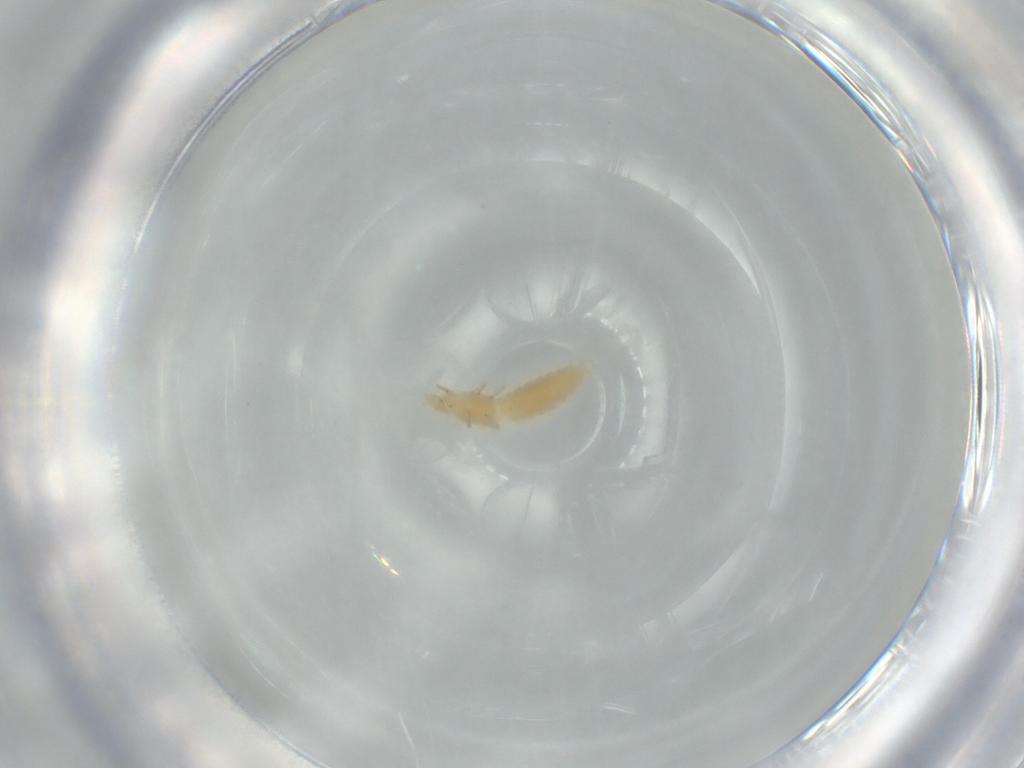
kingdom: Animalia
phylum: Arthropoda
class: Insecta
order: Thysanoptera
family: Thripidae
